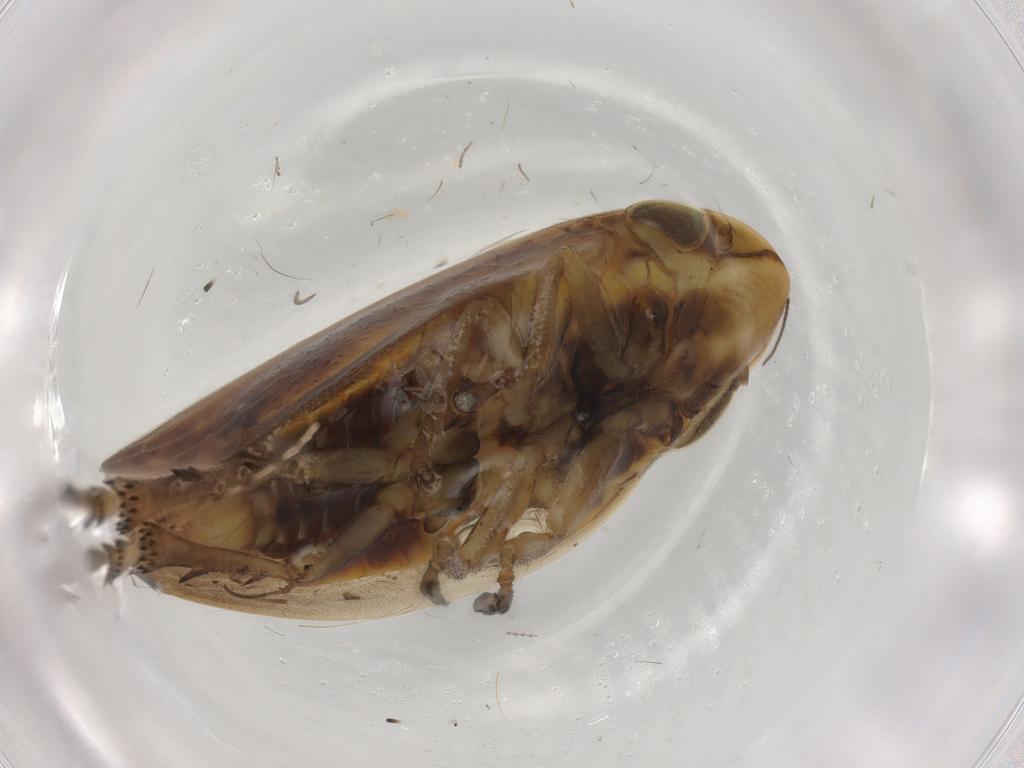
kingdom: Animalia
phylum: Arthropoda
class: Insecta
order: Hemiptera
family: Aphrophoridae
